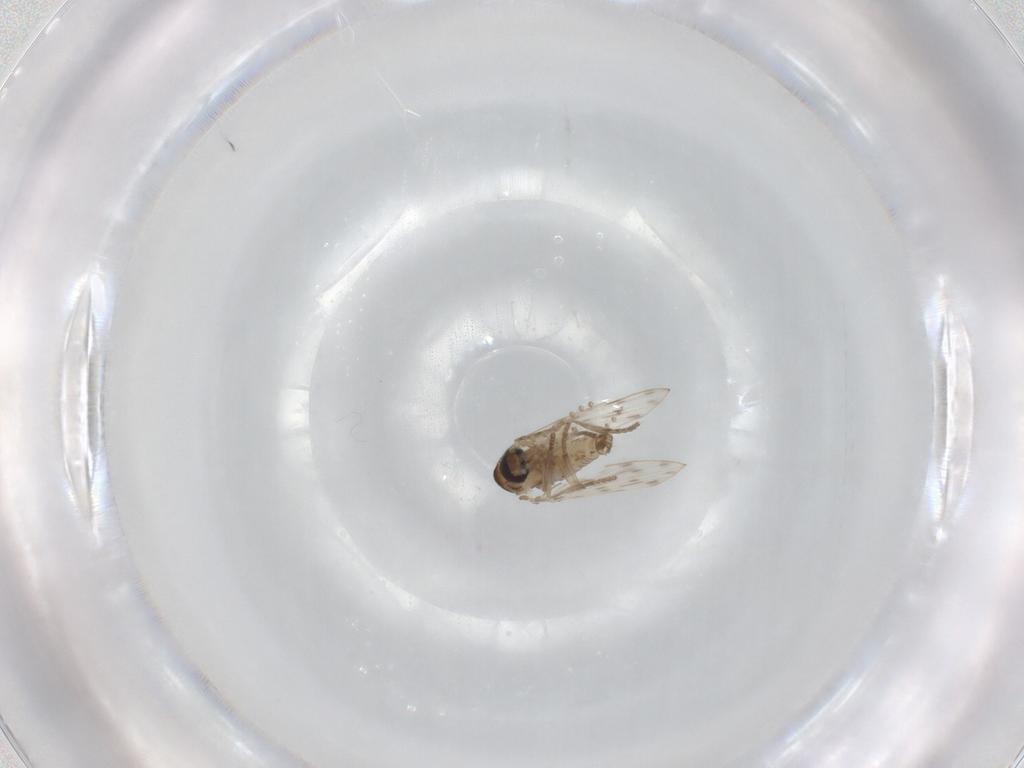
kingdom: Animalia
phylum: Arthropoda
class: Insecta
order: Diptera
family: Psychodidae
